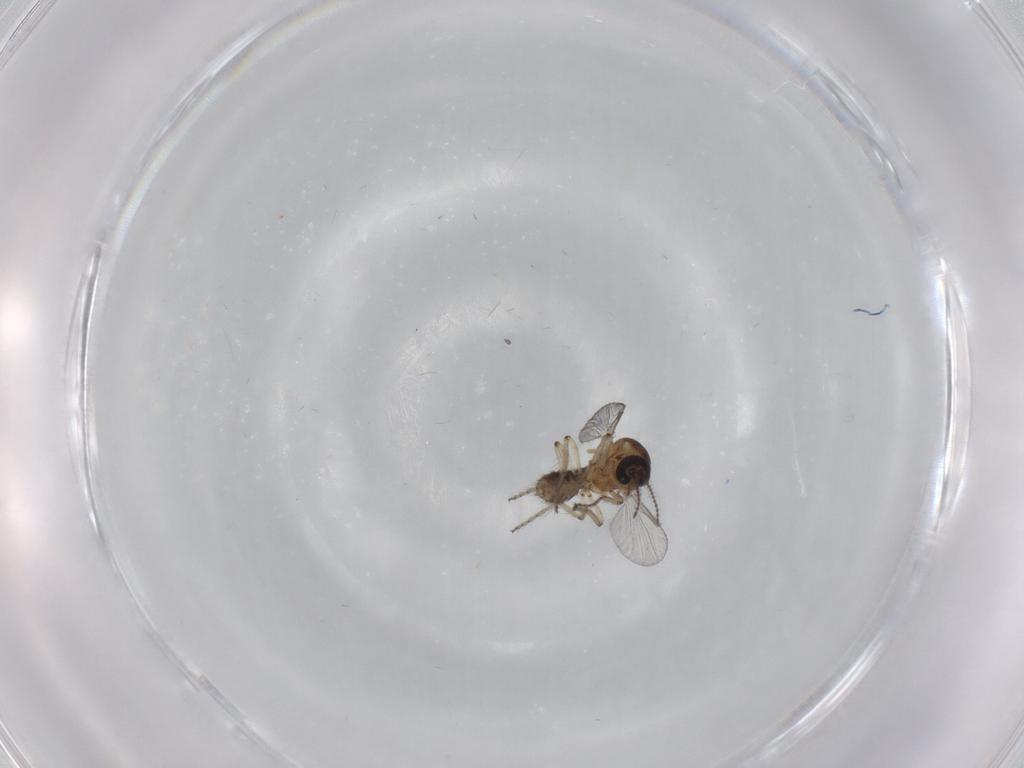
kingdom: Animalia
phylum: Arthropoda
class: Insecta
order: Diptera
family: Ceratopogonidae
